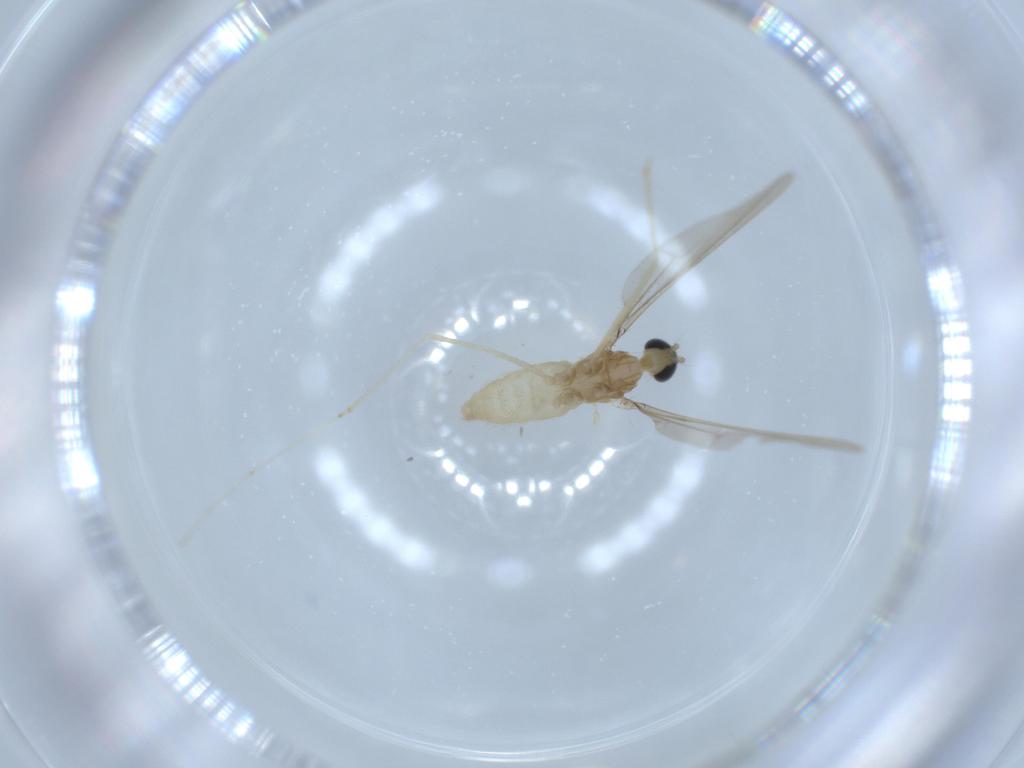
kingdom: Animalia
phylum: Arthropoda
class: Insecta
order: Diptera
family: Cecidomyiidae
